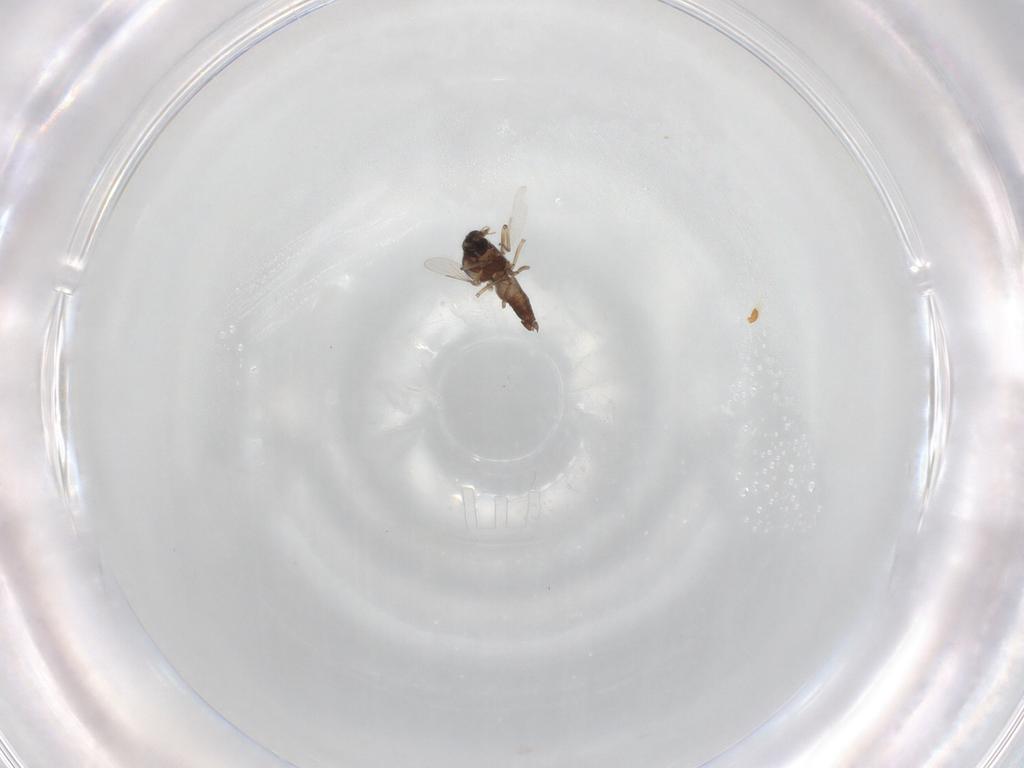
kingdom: Animalia
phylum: Arthropoda
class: Insecta
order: Diptera
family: Ceratopogonidae
